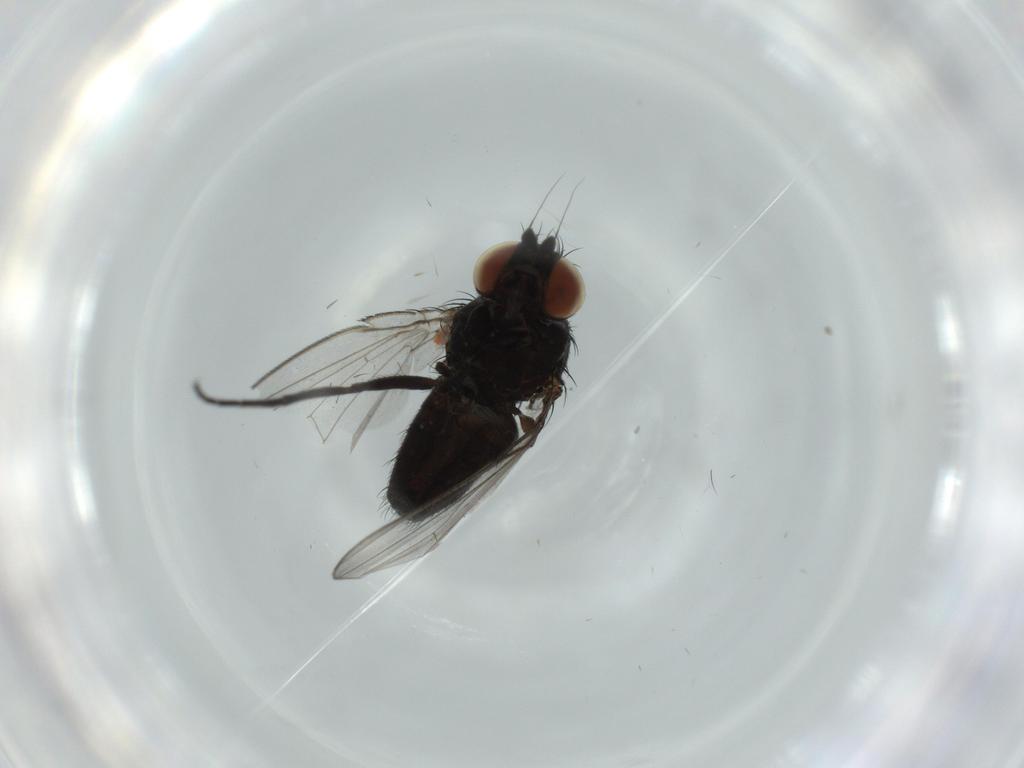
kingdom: Animalia
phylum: Arthropoda
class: Insecta
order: Diptera
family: Milichiidae
